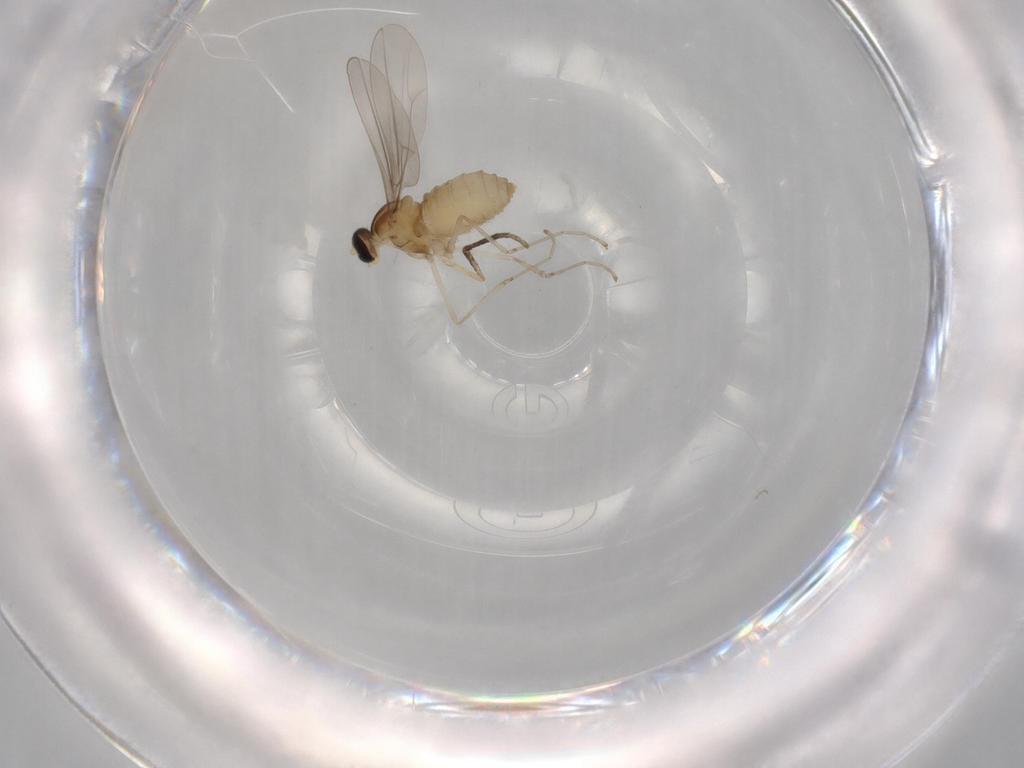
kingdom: Animalia
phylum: Arthropoda
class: Insecta
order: Diptera
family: Cecidomyiidae
